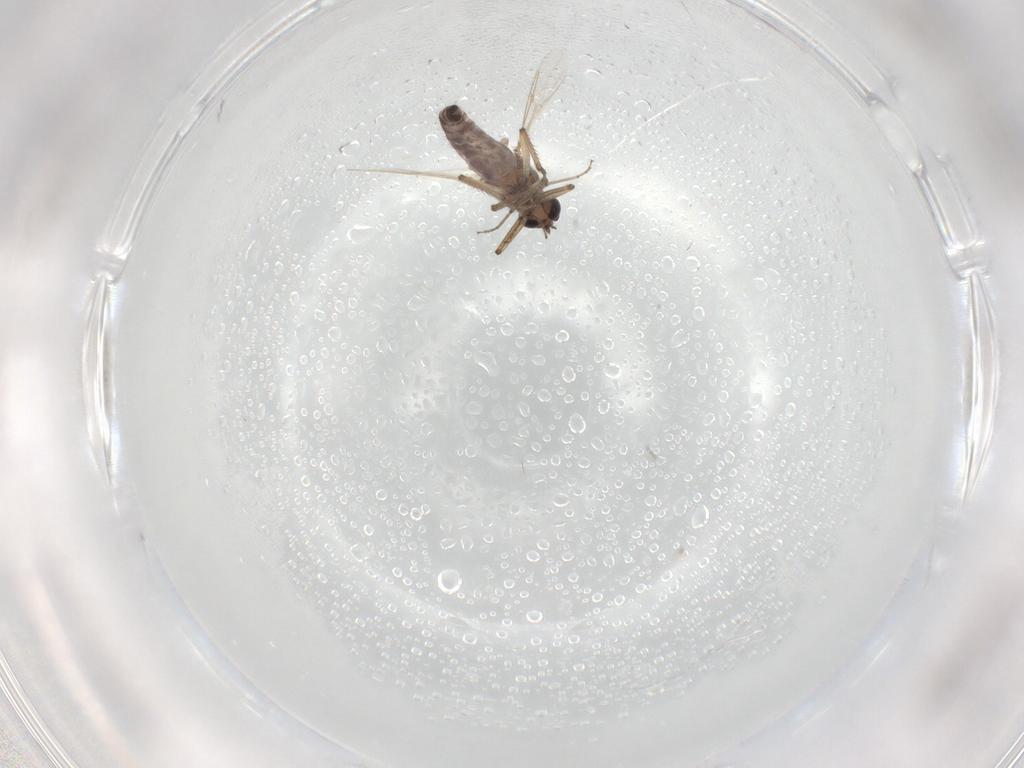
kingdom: Animalia
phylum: Arthropoda
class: Insecta
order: Diptera
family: Ceratopogonidae
